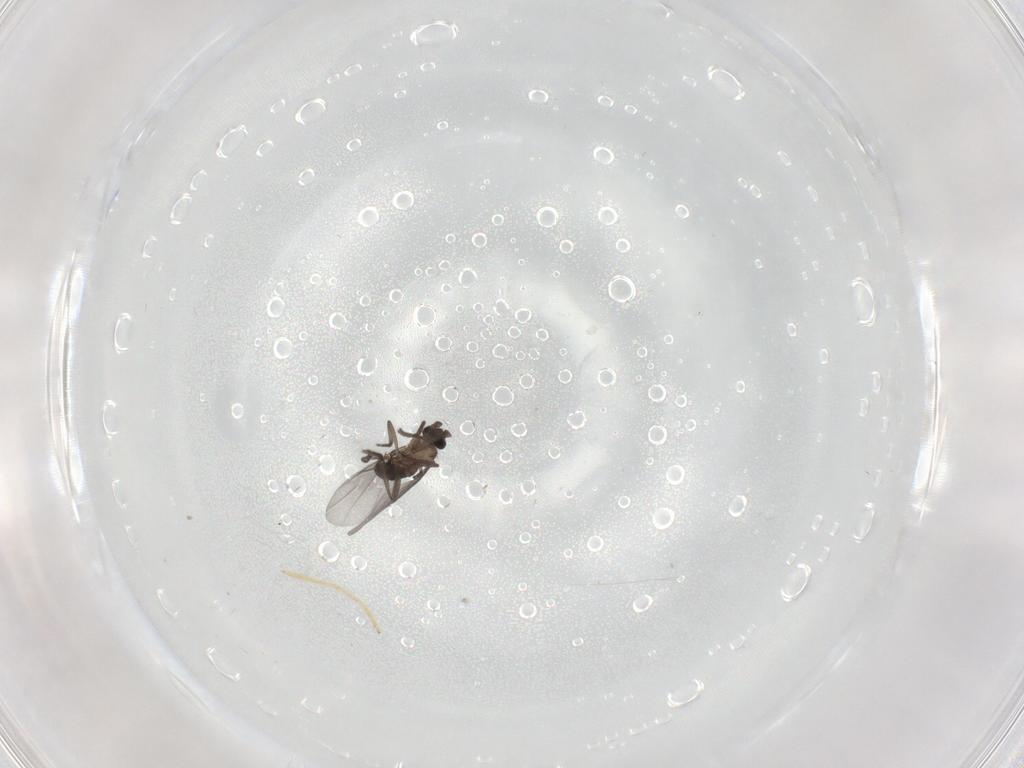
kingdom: Animalia
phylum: Arthropoda
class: Insecta
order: Diptera
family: Phoridae
